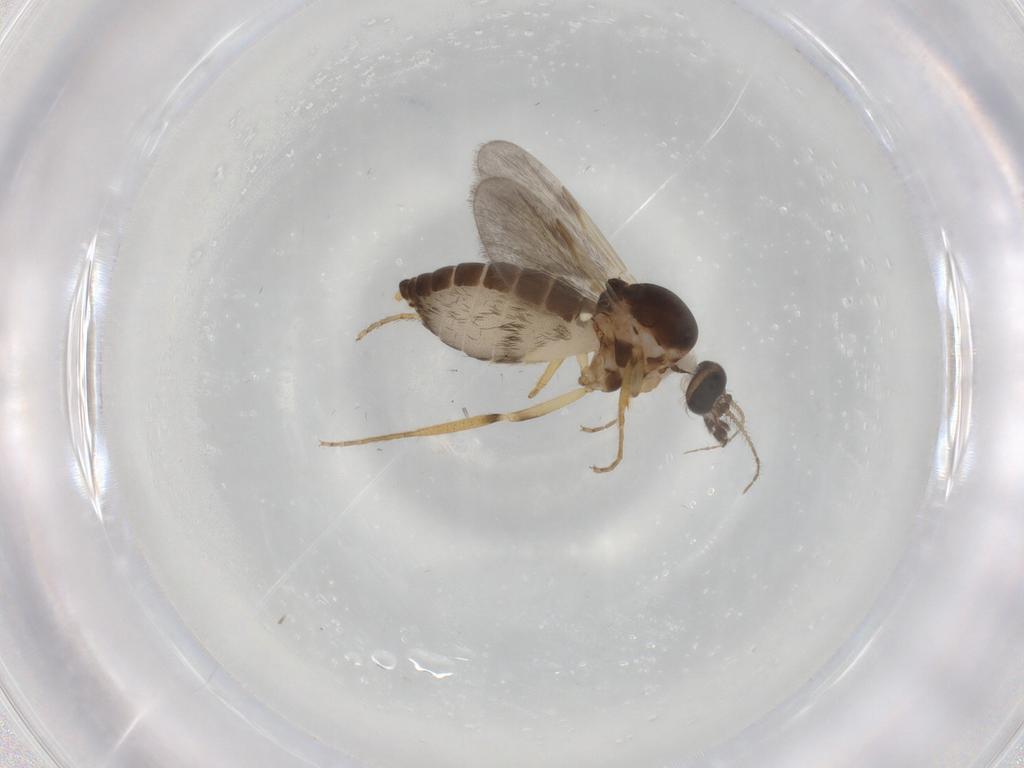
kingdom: Animalia
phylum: Arthropoda
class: Insecta
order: Diptera
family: Ceratopogonidae
